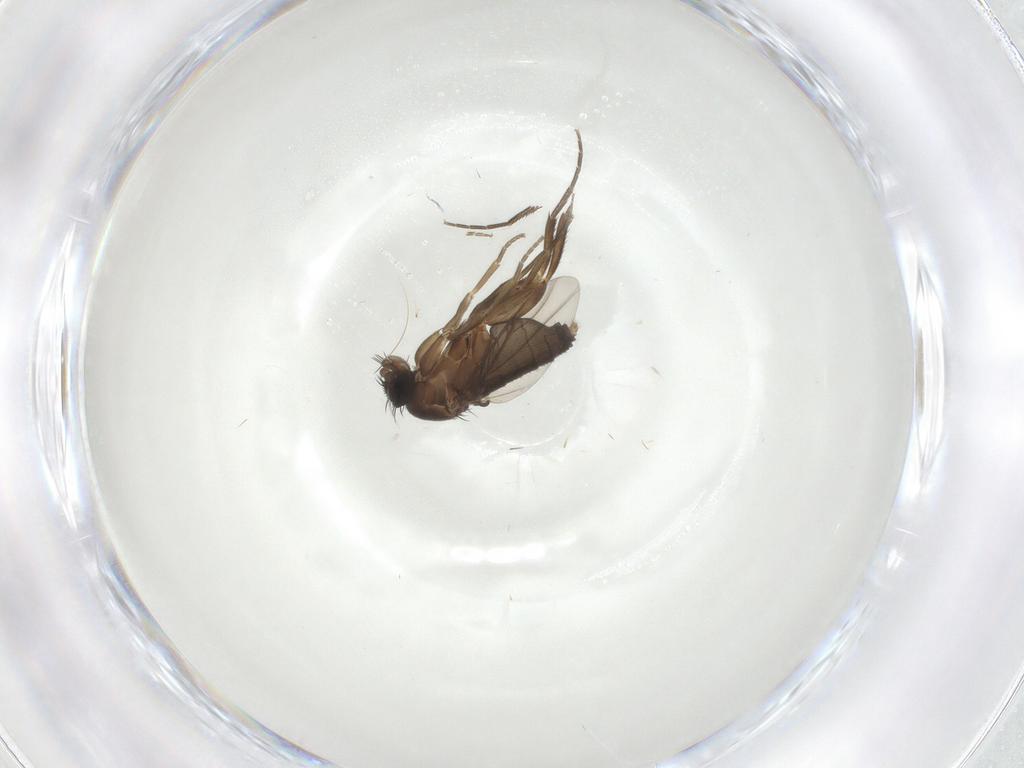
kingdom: Animalia
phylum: Arthropoda
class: Insecta
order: Diptera
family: Phoridae
